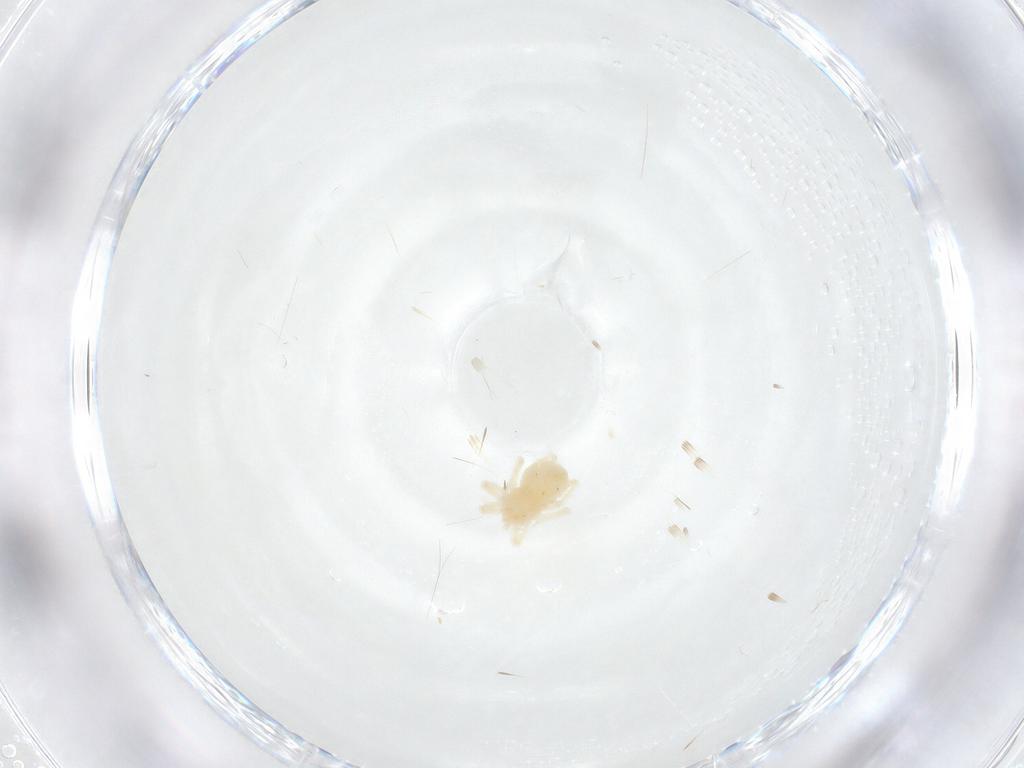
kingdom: Animalia
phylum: Arthropoda
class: Arachnida
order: Trombidiformes
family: Anystidae
